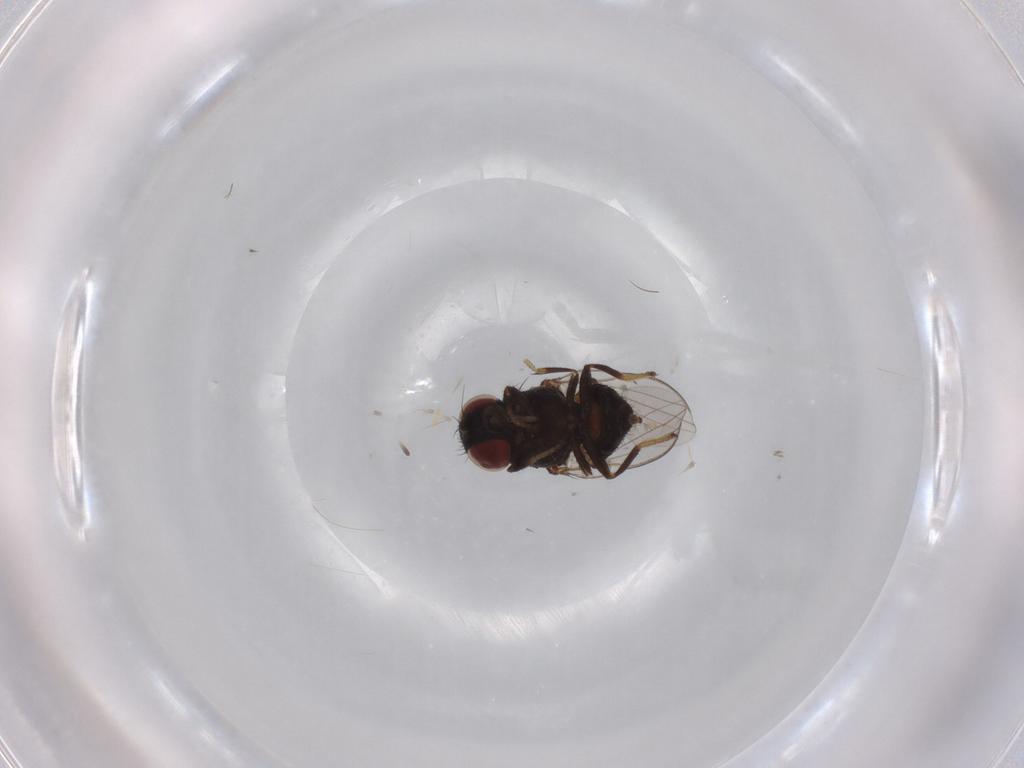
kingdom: Animalia
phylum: Arthropoda
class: Insecta
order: Diptera
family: Milichiidae
